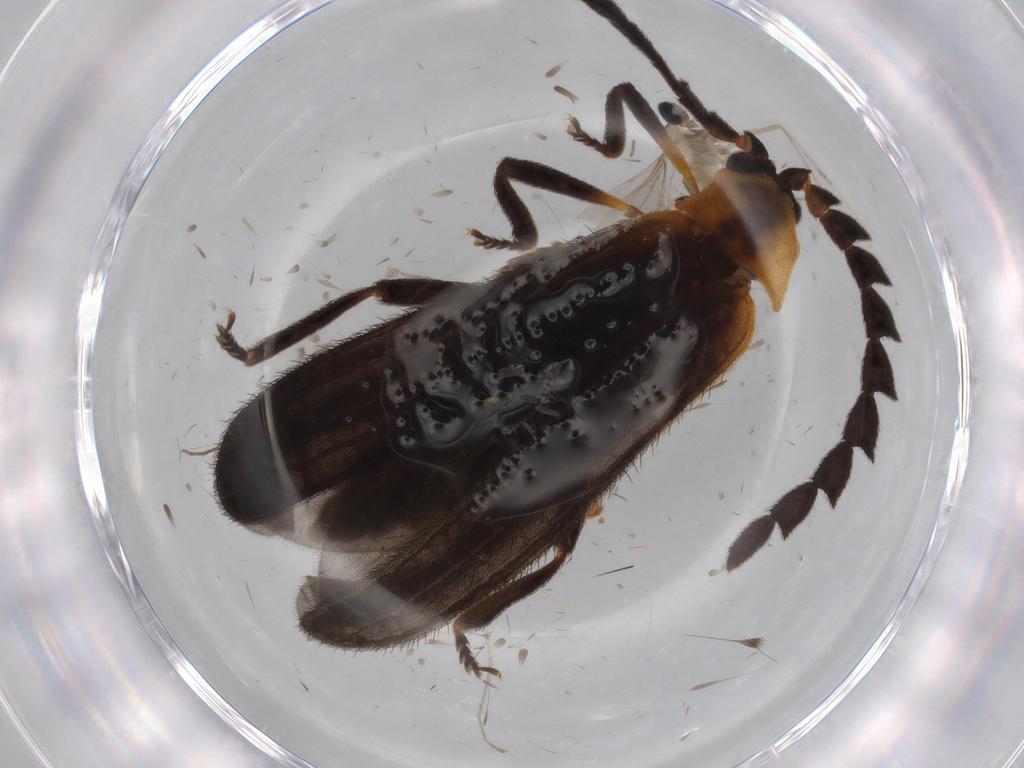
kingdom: Animalia
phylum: Arthropoda
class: Insecta
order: Coleoptera
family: Lycidae
